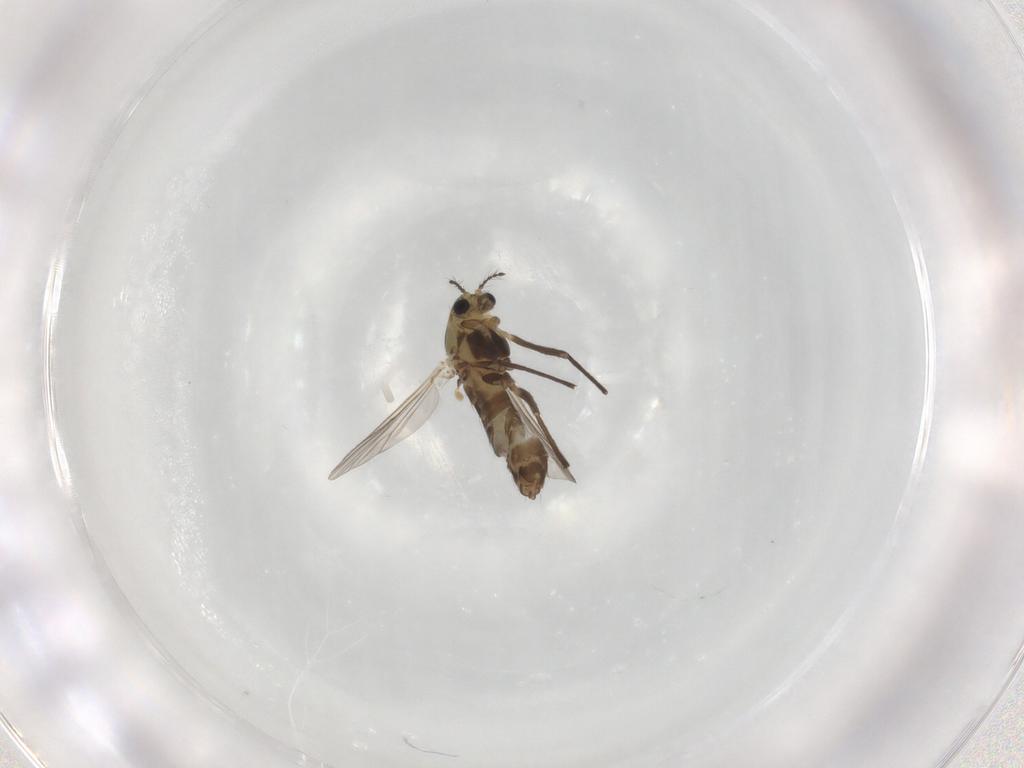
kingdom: Animalia
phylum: Arthropoda
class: Insecta
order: Diptera
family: Chironomidae
